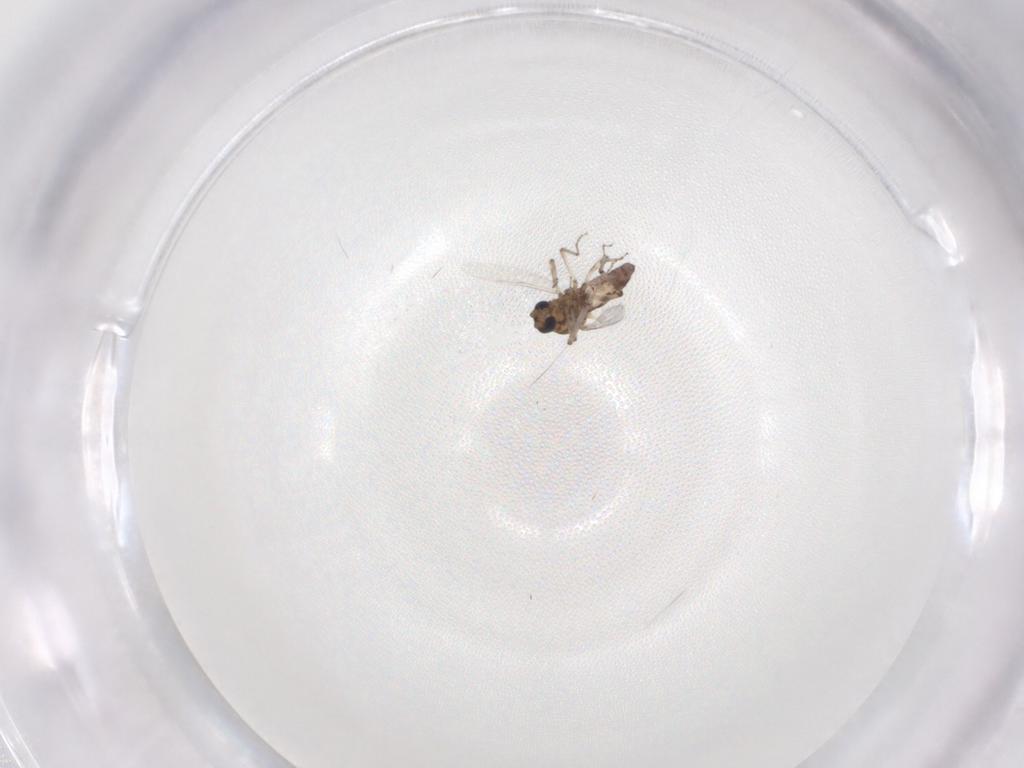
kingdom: Animalia
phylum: Arthropoda
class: Insecta
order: Diptera
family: Ceratopogonidae
